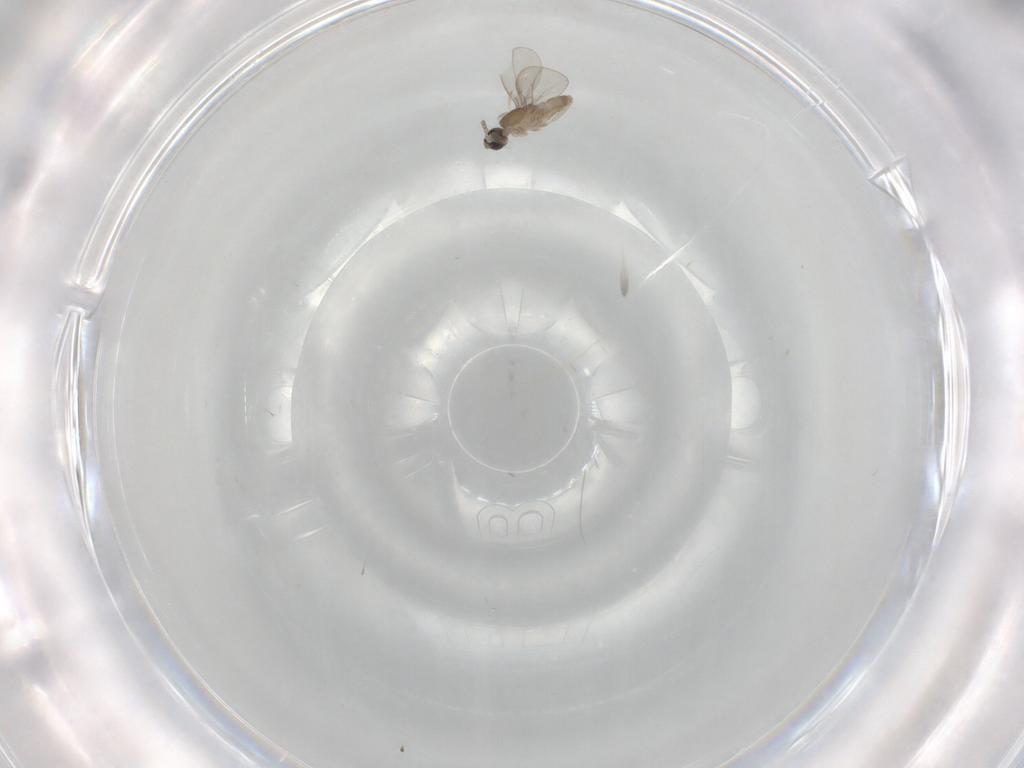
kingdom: Animalia
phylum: Arthropoda
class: Insecta
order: Diptera
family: Cecidomyiidae
